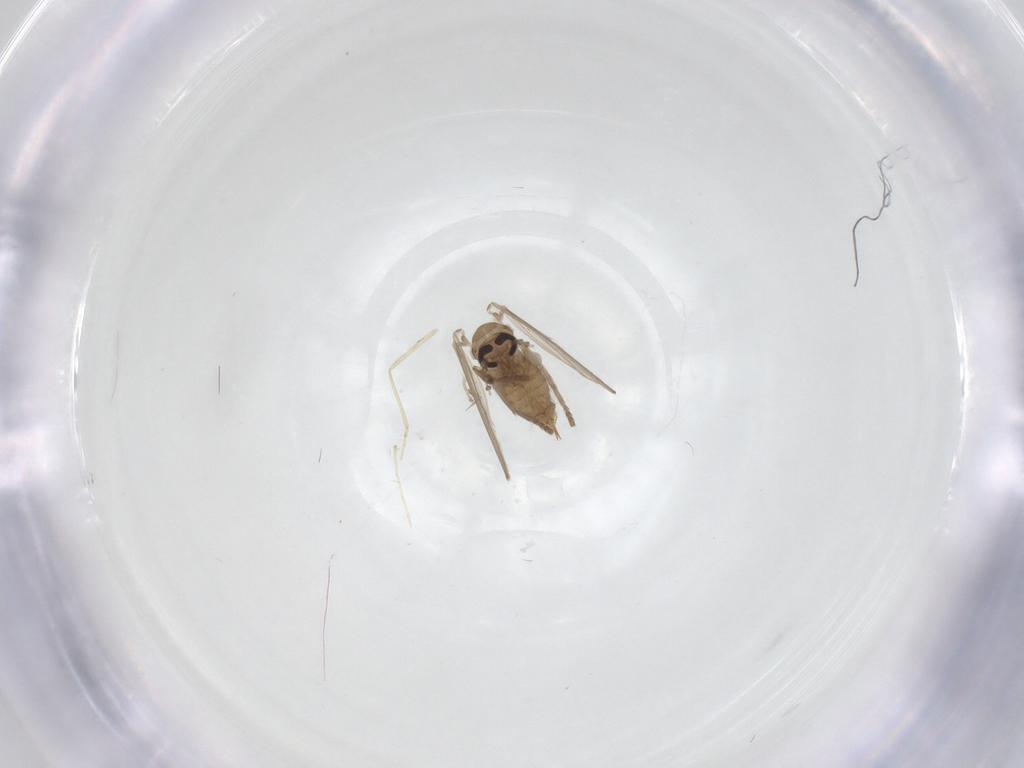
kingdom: Animalia
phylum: Arthropoda
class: Insecta
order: Diptera
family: Psychodidae
